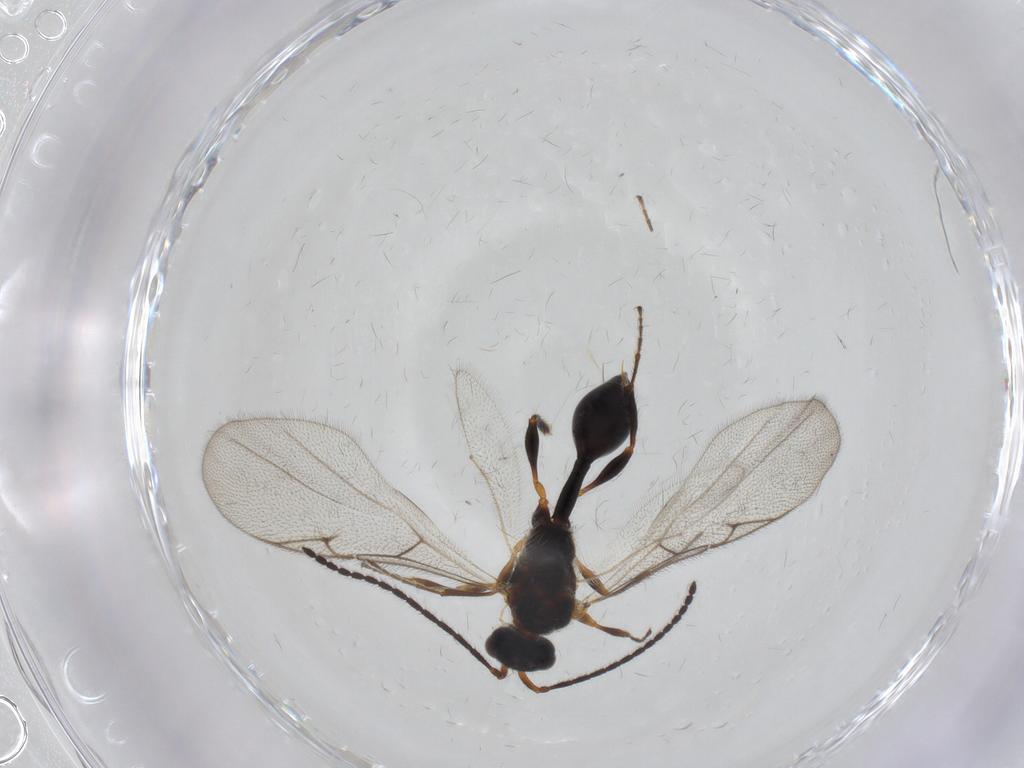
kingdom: Animalia
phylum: Arthropoda
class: Insecta
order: Hymenoptera
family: Diapriidae
